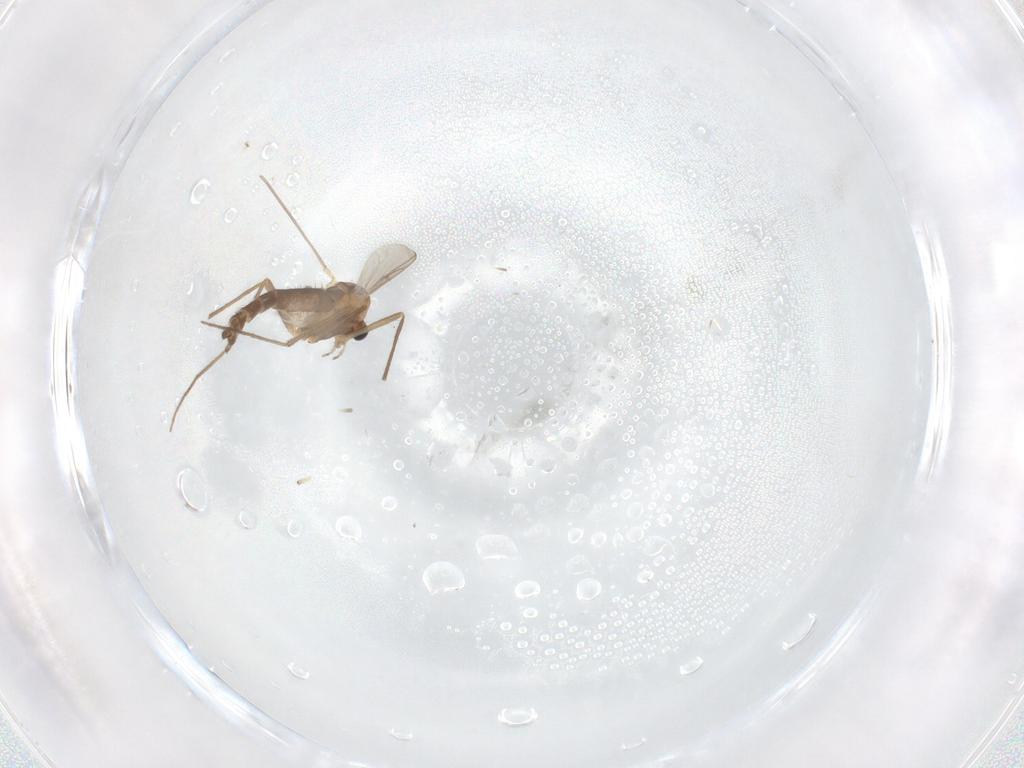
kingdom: Animalia
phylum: Arthropoda
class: Insecta
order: Diptera
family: Chironomidae
